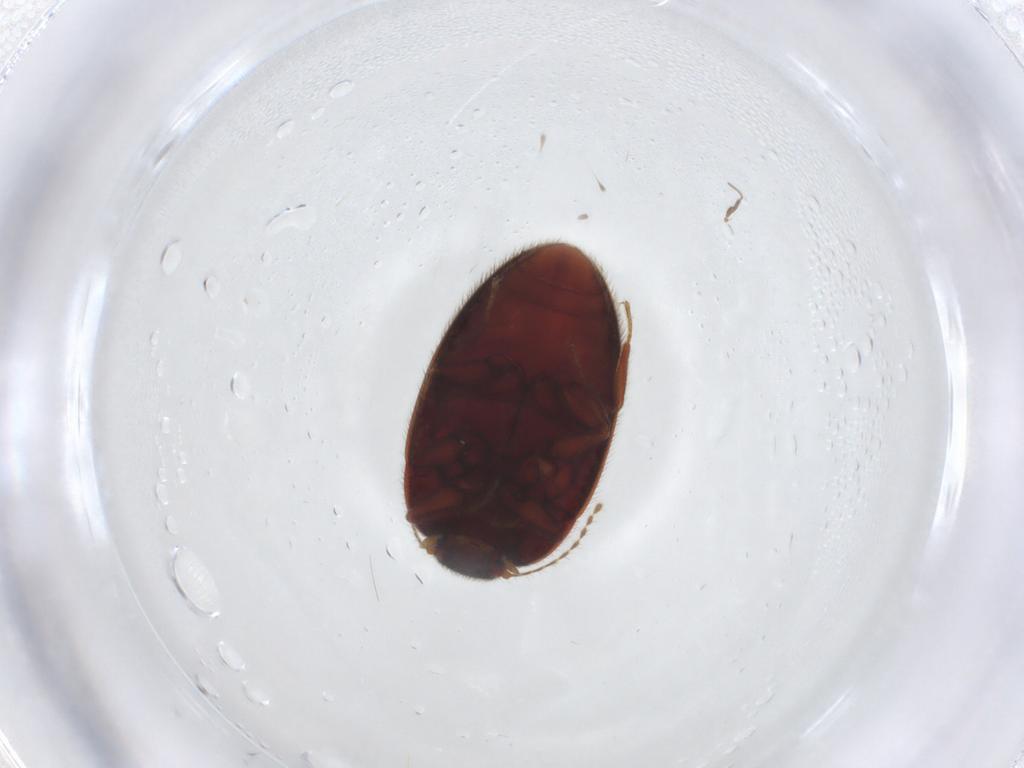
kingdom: Animalia
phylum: Arthropoda
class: Insecta
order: Coleoptera
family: Limnichidae
